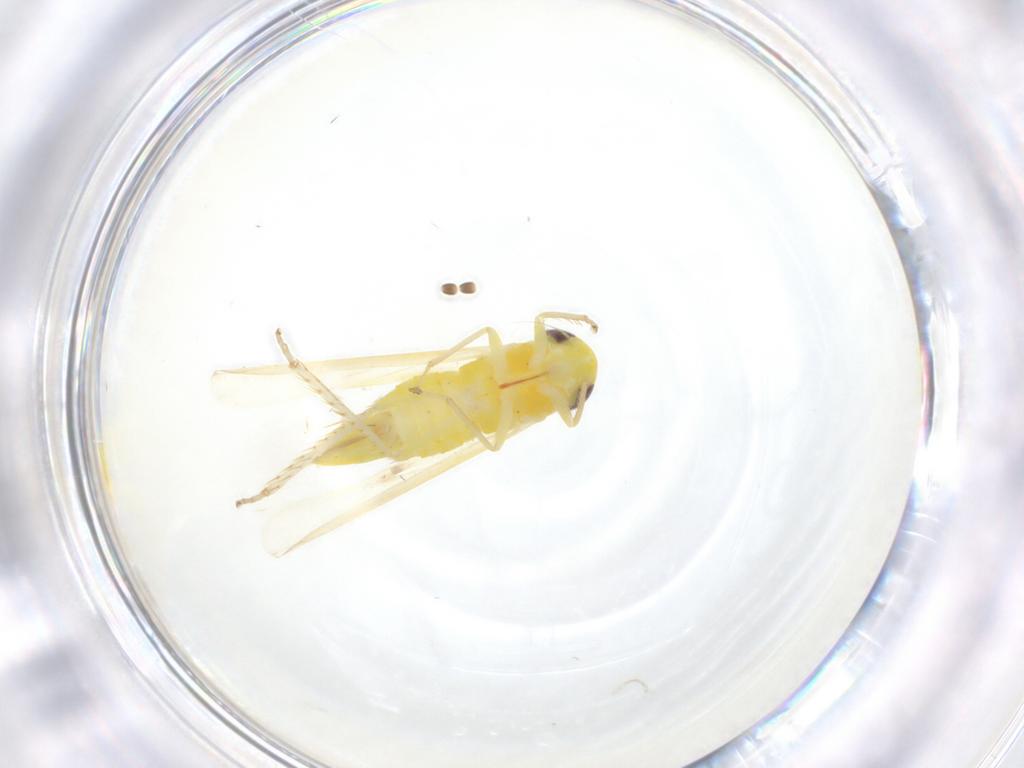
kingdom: Animalia
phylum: Arthropoda
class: Insecta
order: Hemiptera
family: Cicadellidae
